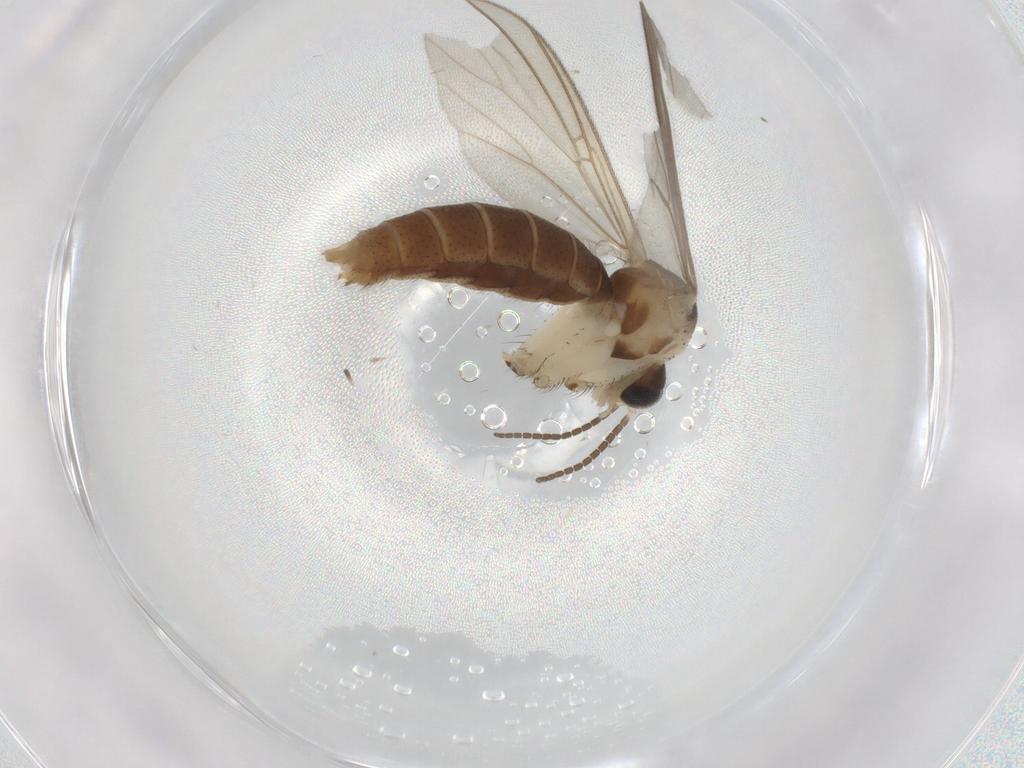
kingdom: Animalia
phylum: Arthropoda
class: Insecta
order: Diptera
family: Mycetophilidae
